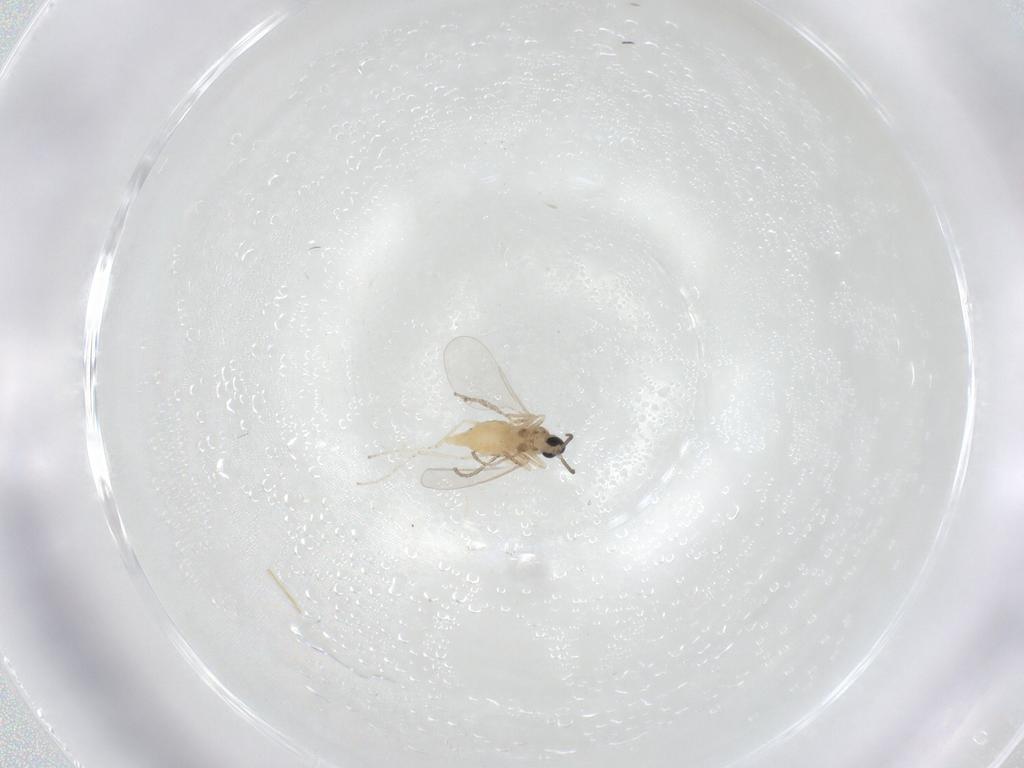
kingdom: Animalia
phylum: Arthropoda
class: Insecta
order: Diptera
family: Cecidomyiidae
